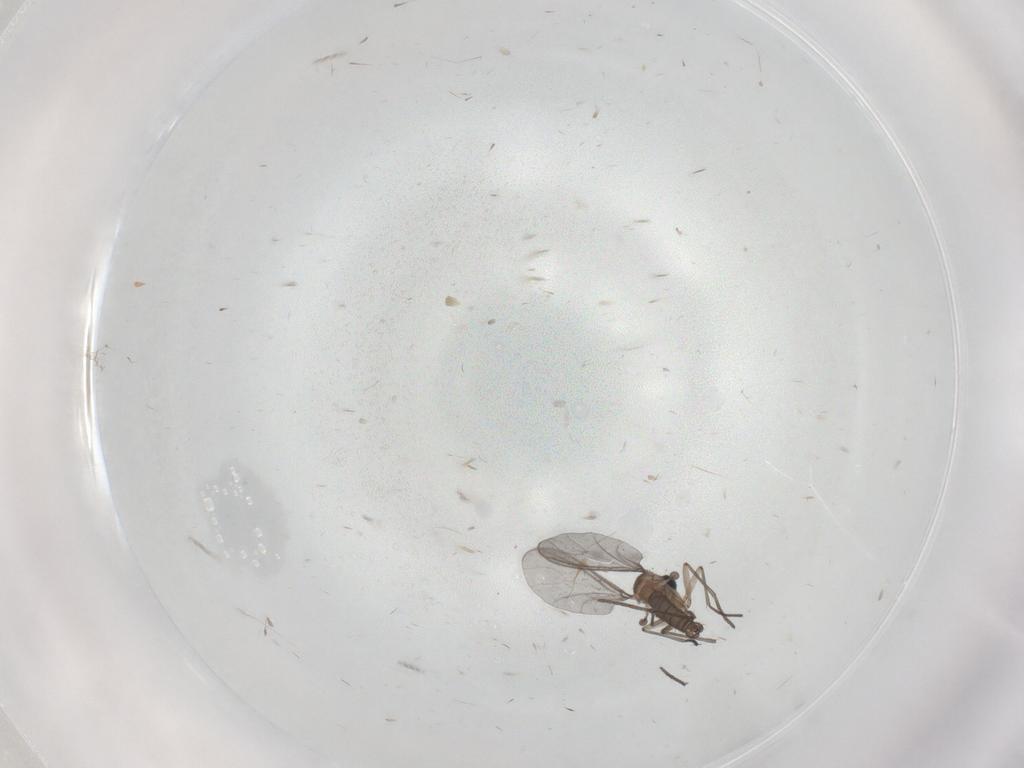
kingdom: Animalia
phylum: Arthropoda
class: Insecta
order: Diptera
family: Sciaridae
